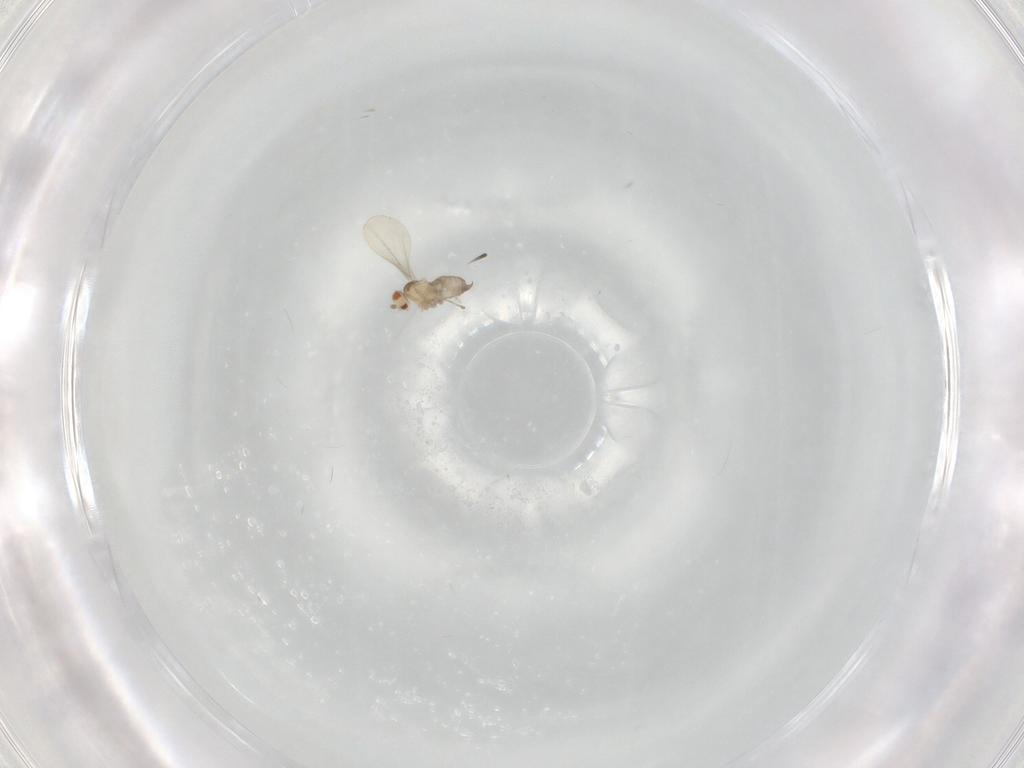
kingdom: Animalia
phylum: Arthropoda
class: Insecta
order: Diptera
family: Cecidomyiidae
